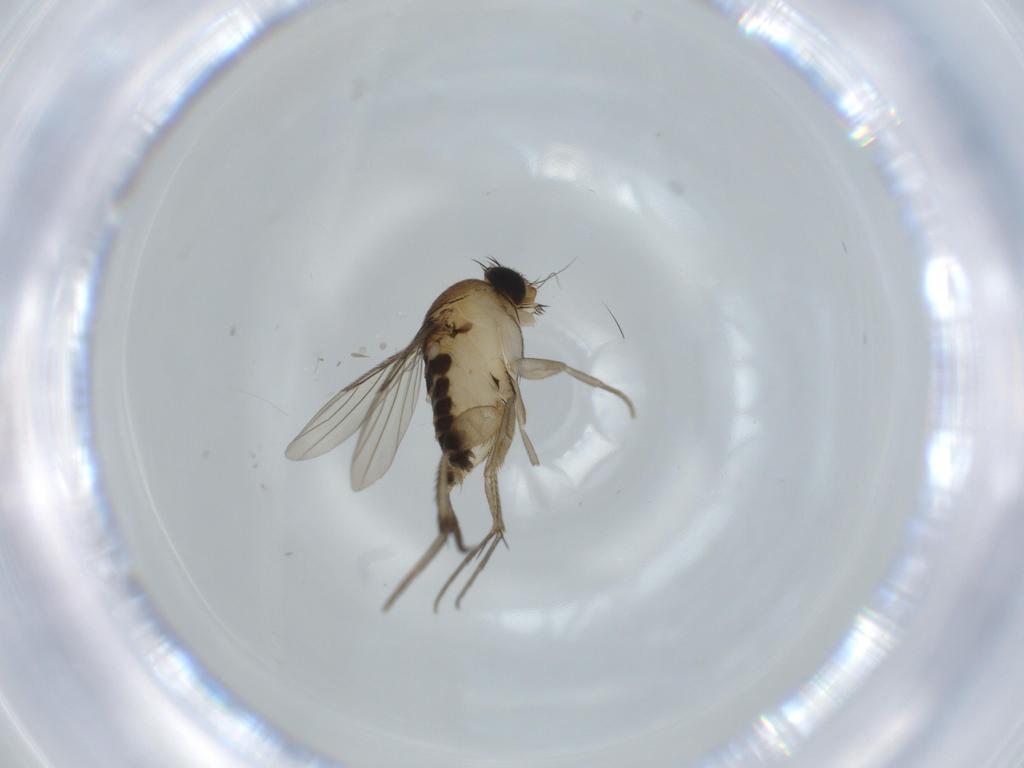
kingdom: Animalia
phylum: Arthropoda
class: Insecta
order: Diptera
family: Phoridae
